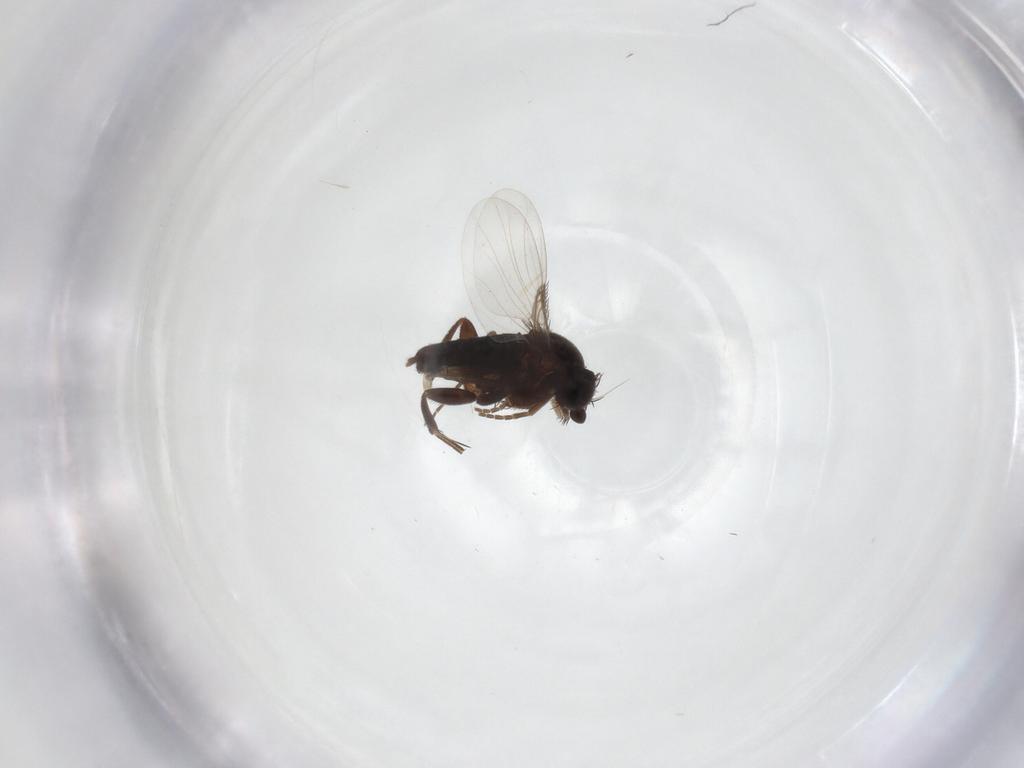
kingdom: Animalia
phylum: Arthropoda
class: Insecta
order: Diptera
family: Phoridae
